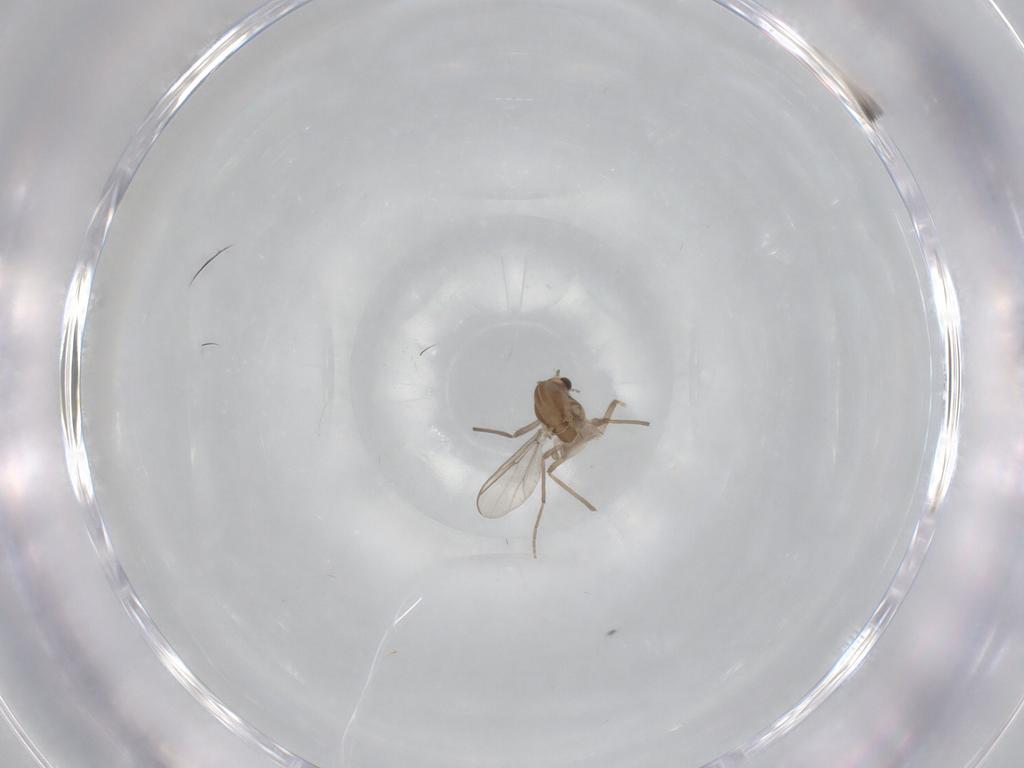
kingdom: Animalia
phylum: Arthropoda
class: Insecta
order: Diptera
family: Chironomidae
